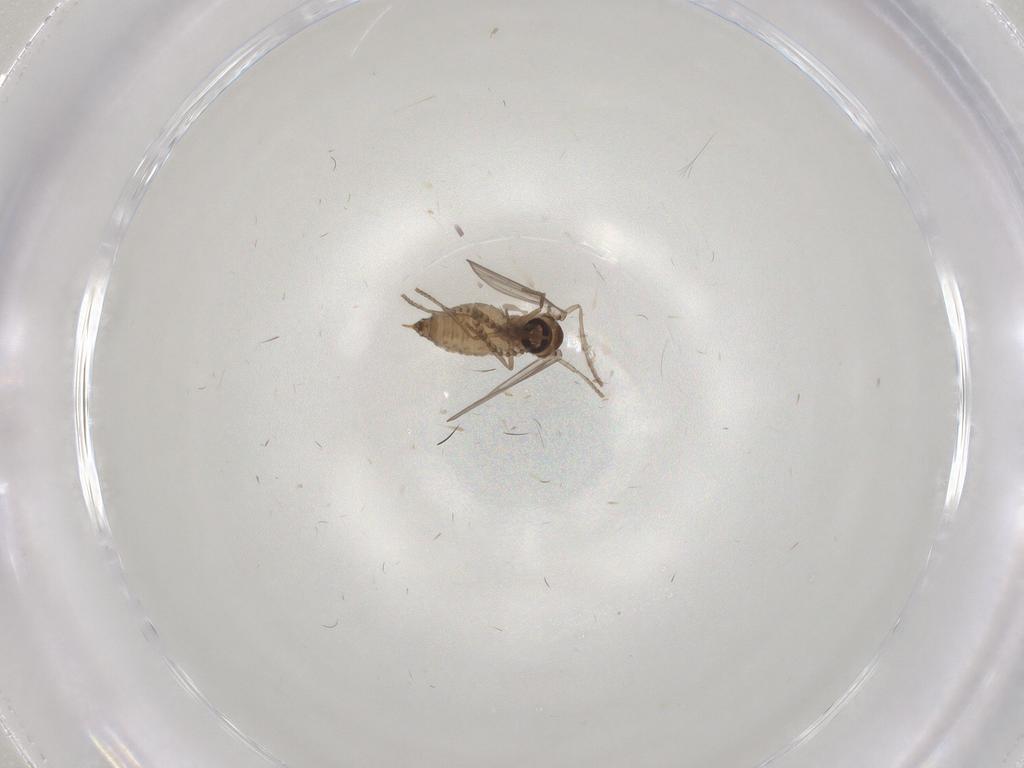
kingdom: Animalia
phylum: Arthropoda
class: Insecta
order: Diptera
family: Psychodidae
